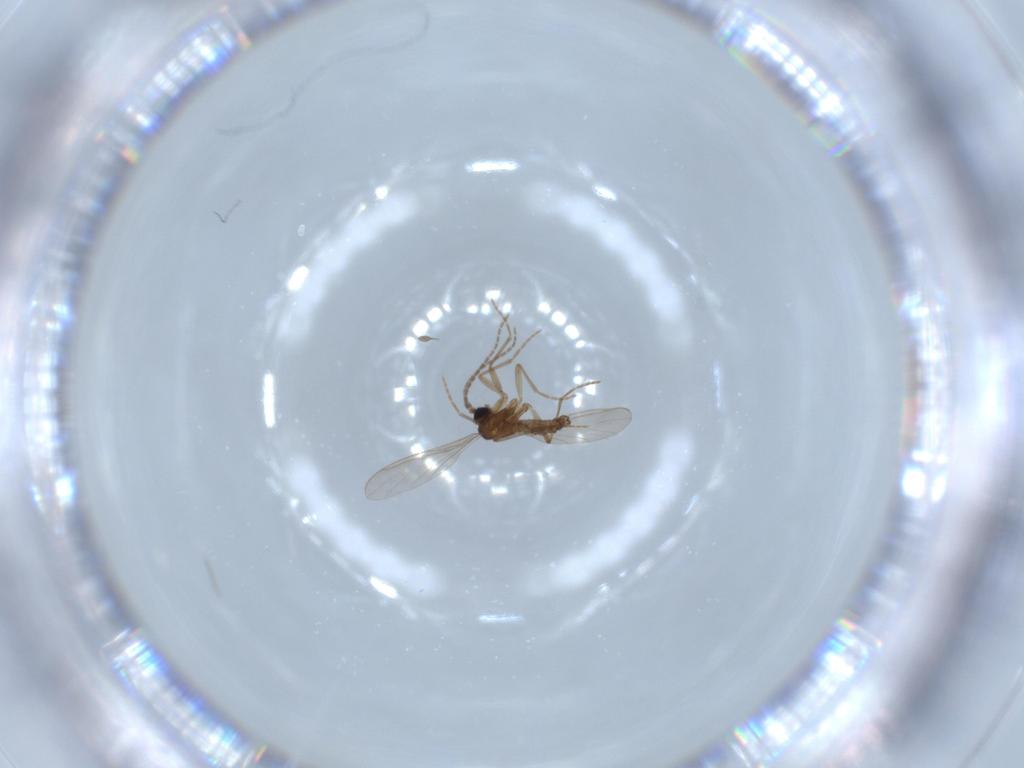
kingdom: Animalia
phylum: Arthropoda
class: Insecta
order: Diptera
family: Sciaridae
